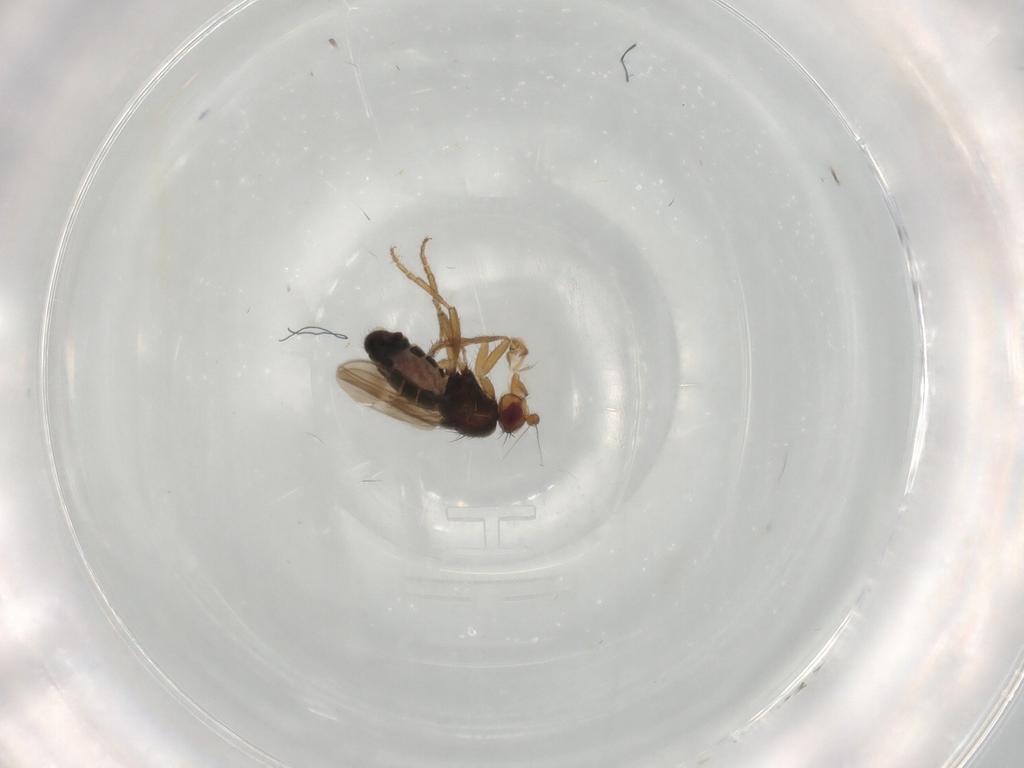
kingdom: Animalia
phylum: Arthropoda
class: Insecta
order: Diptera
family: Sphaeroceridae
